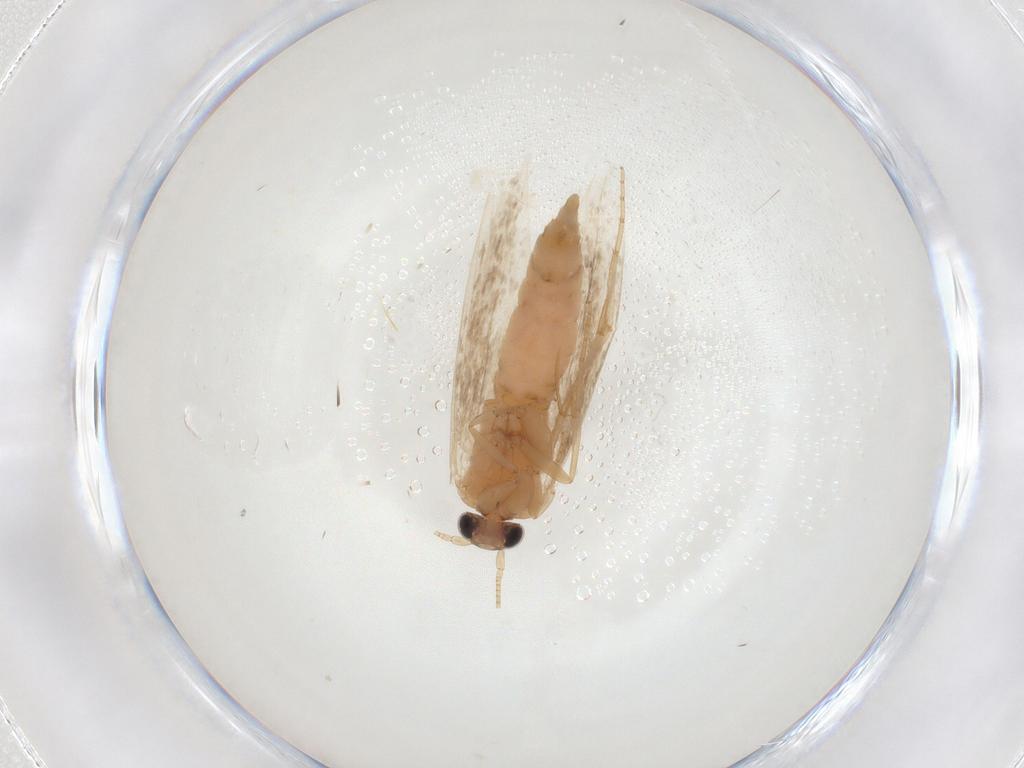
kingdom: Animalia
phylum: Arthropoda
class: Insecta
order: Lepidoptera
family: Nepticulidae
